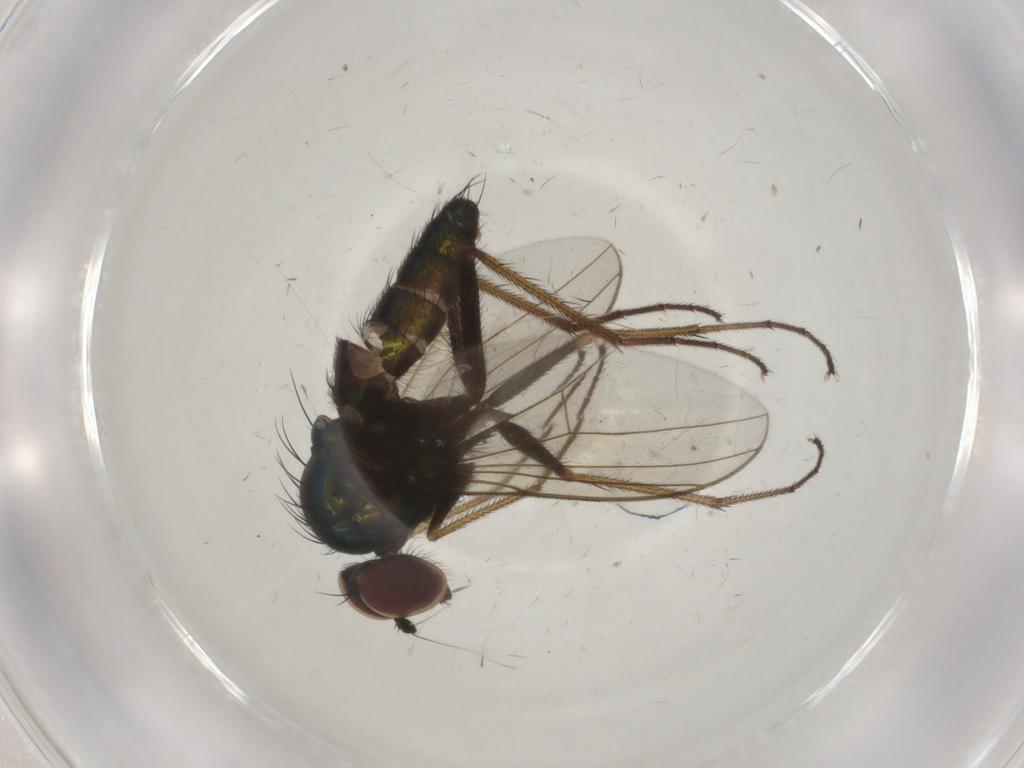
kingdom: Animalia
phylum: Arthropoda
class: Insecta
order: Diptera
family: Dolichopodidae
